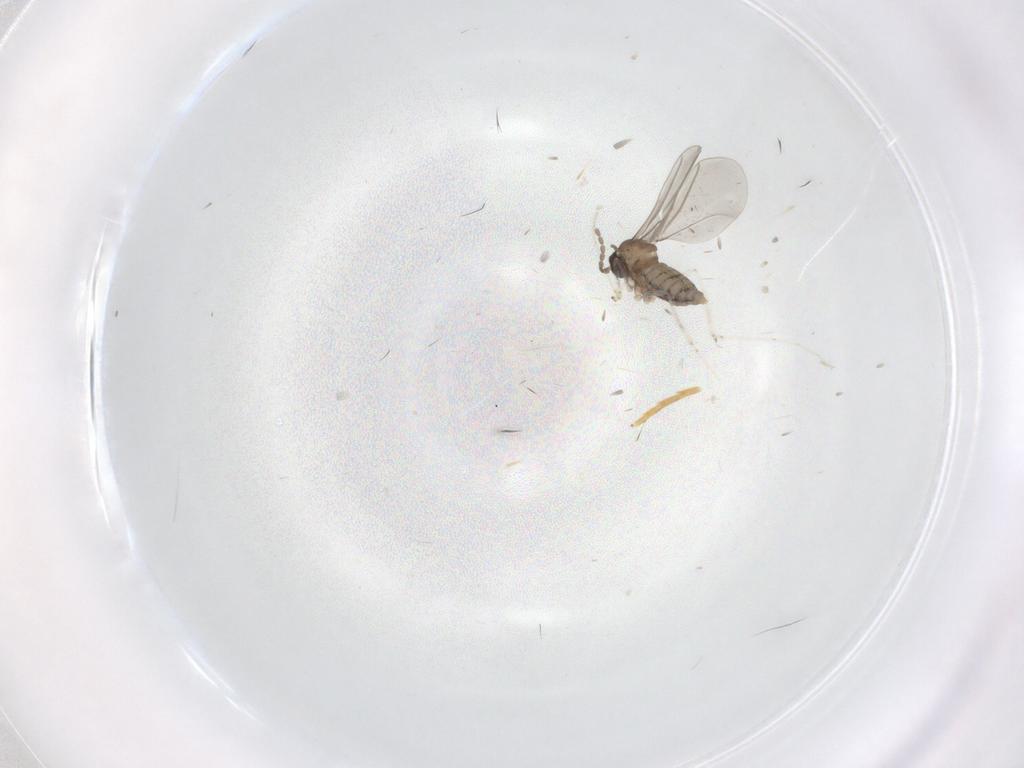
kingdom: Animalia
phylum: Arthropoda
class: Insecta
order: Diptera
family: Cecidomyiidae
